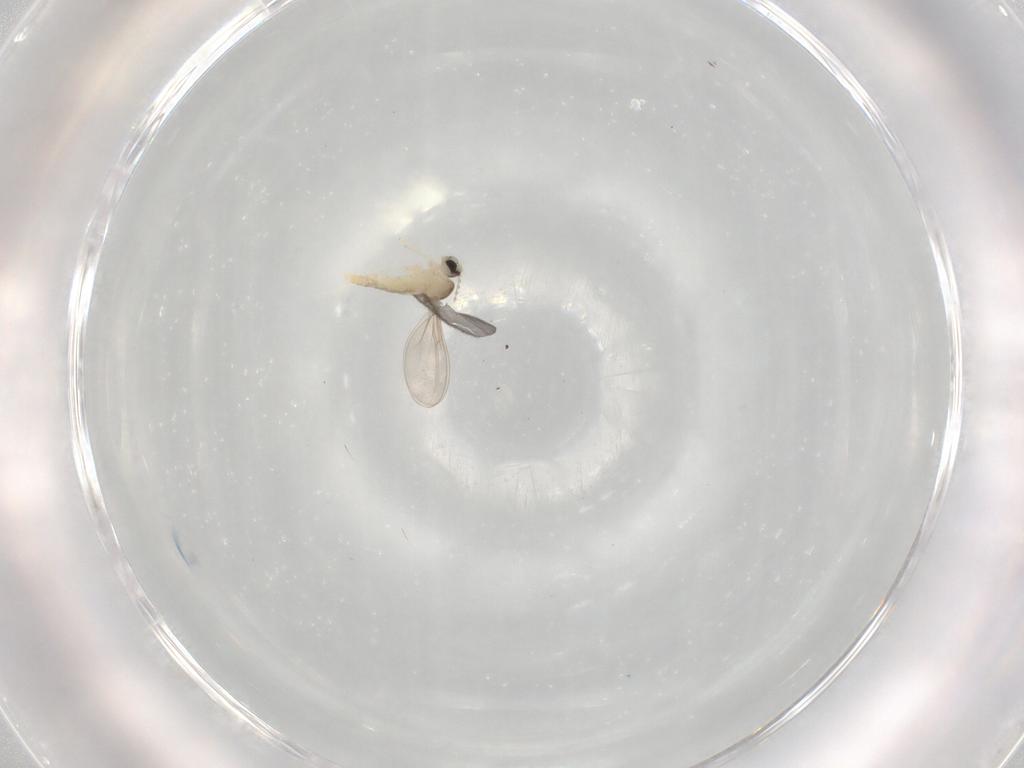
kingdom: Animalia
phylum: Arthropoda
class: Insecta
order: Diptera
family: Cecidomyiidae
